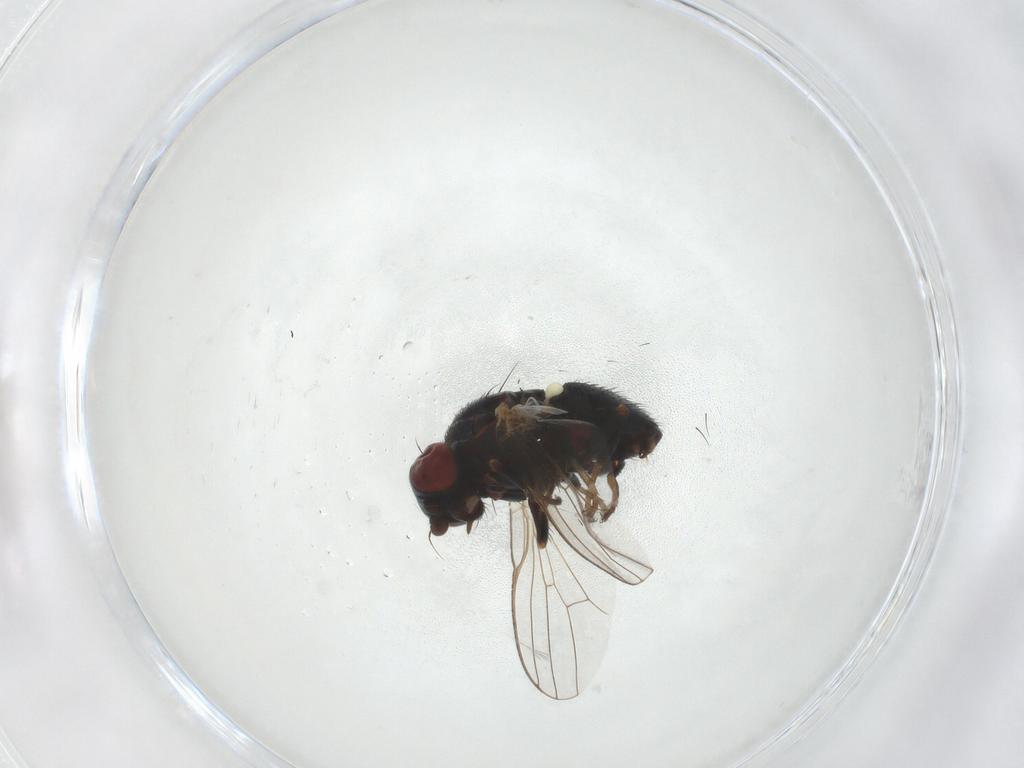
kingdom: Animalia
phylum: Arthropoda
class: Insecta
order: Diptera
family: Chamaemyiidae
